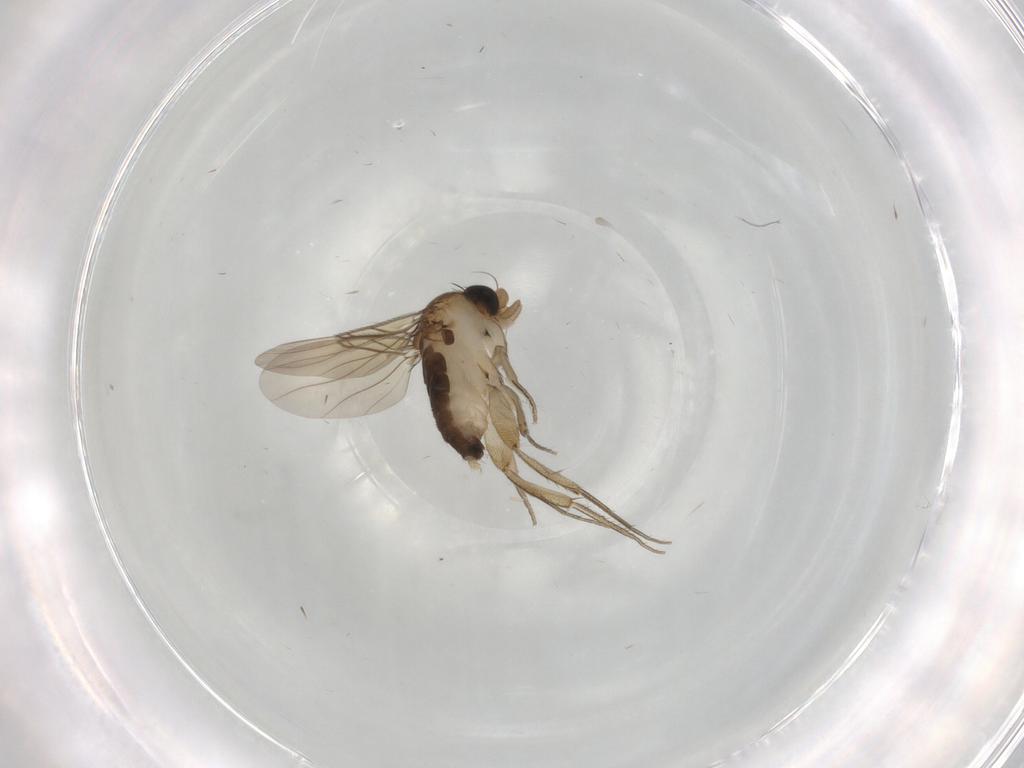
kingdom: Animalia
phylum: Arthropoda
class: Insecta
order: Diptera
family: Phoridae
